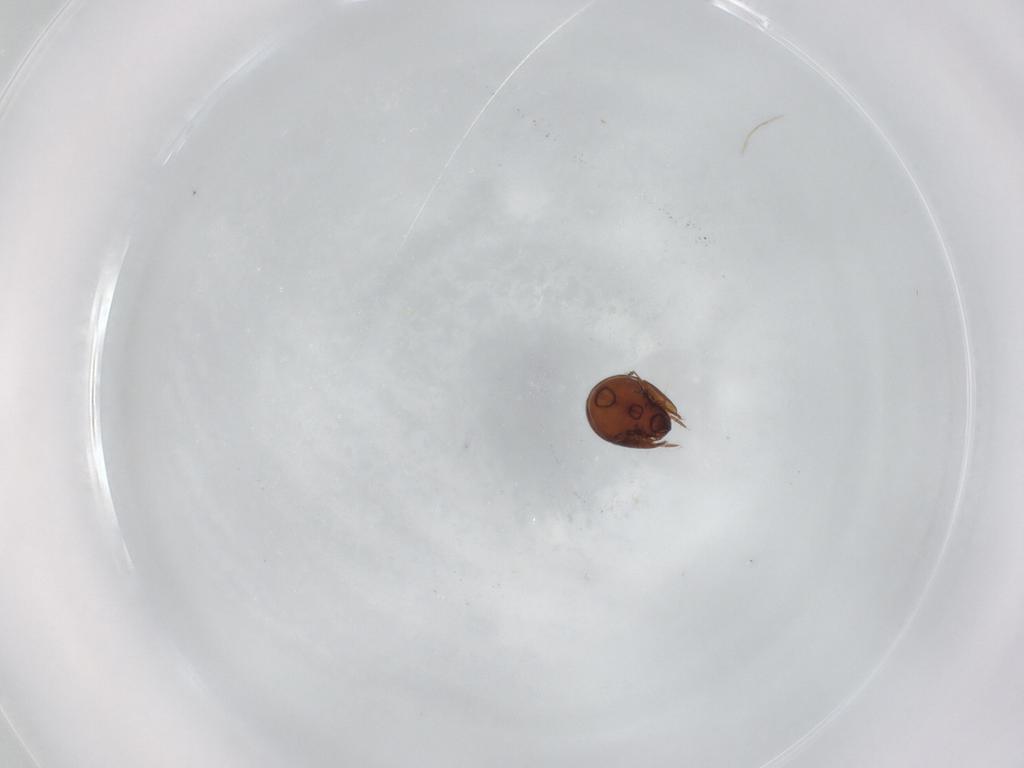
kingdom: Animalia
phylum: Arthropoda
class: Arachnida
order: Sarcoptiformes
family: Ceratozetidae
